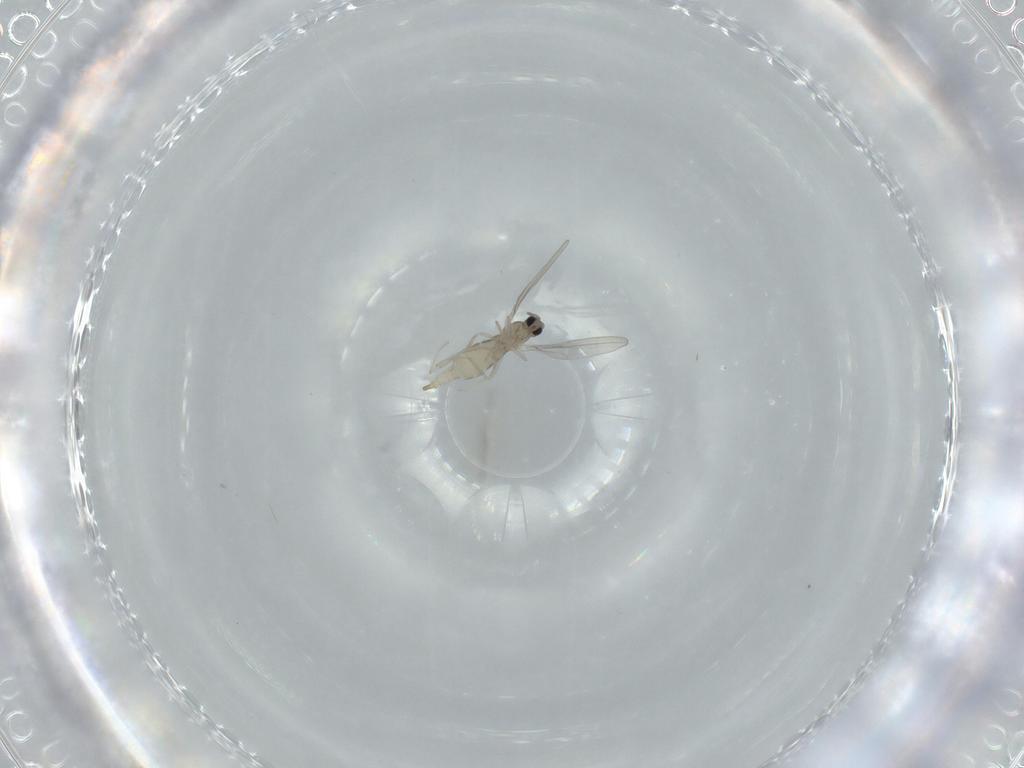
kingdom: Animalia
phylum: Arthropoda
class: Insecta
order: Diptera
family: Cecidomyiidae
